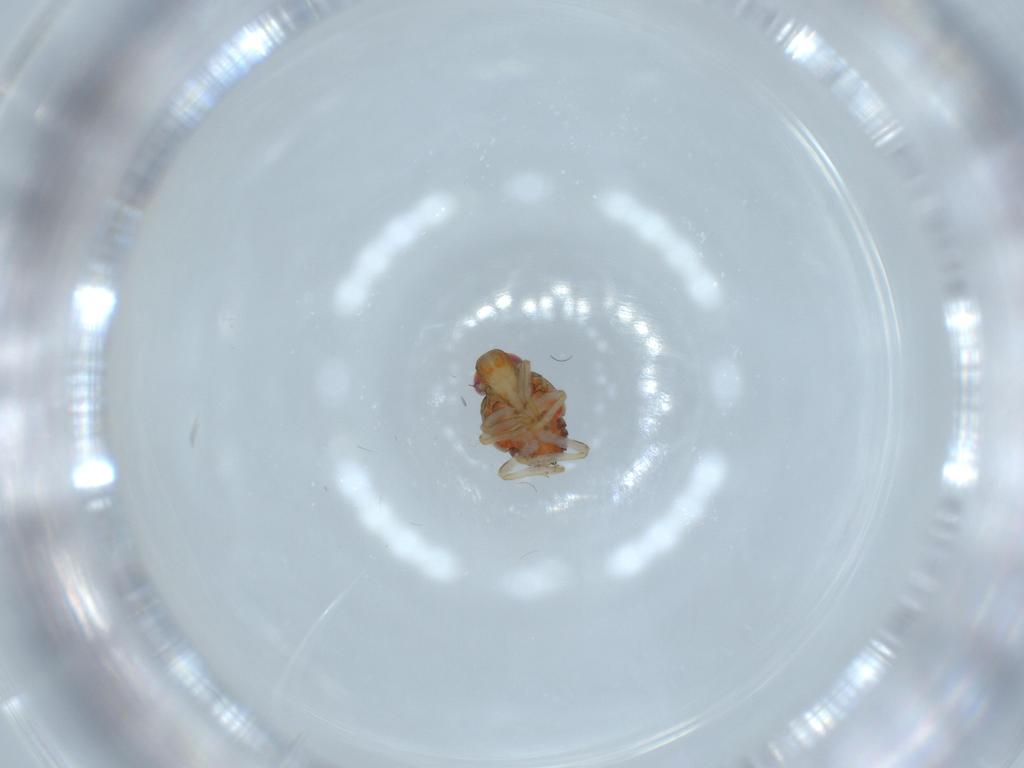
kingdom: Animalia
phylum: Arthropoda
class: Insecta
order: Hemiptera
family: Issidae
